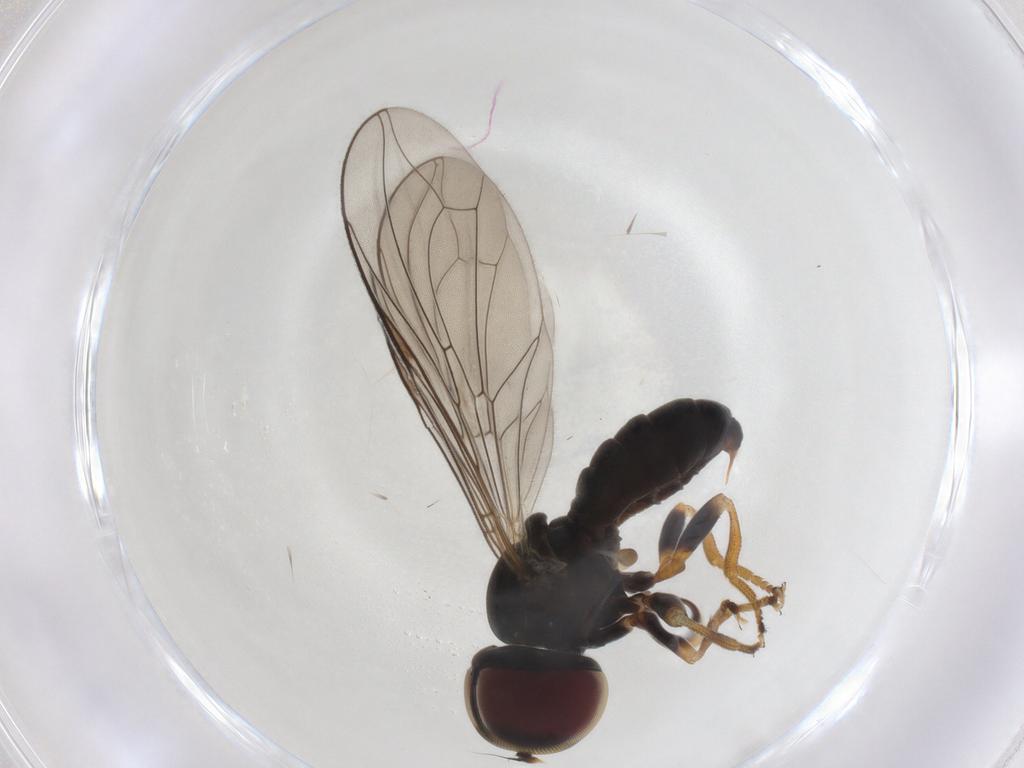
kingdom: Animalia
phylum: Arthropoda
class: Insecta
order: Diptera
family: Pipunculidae
